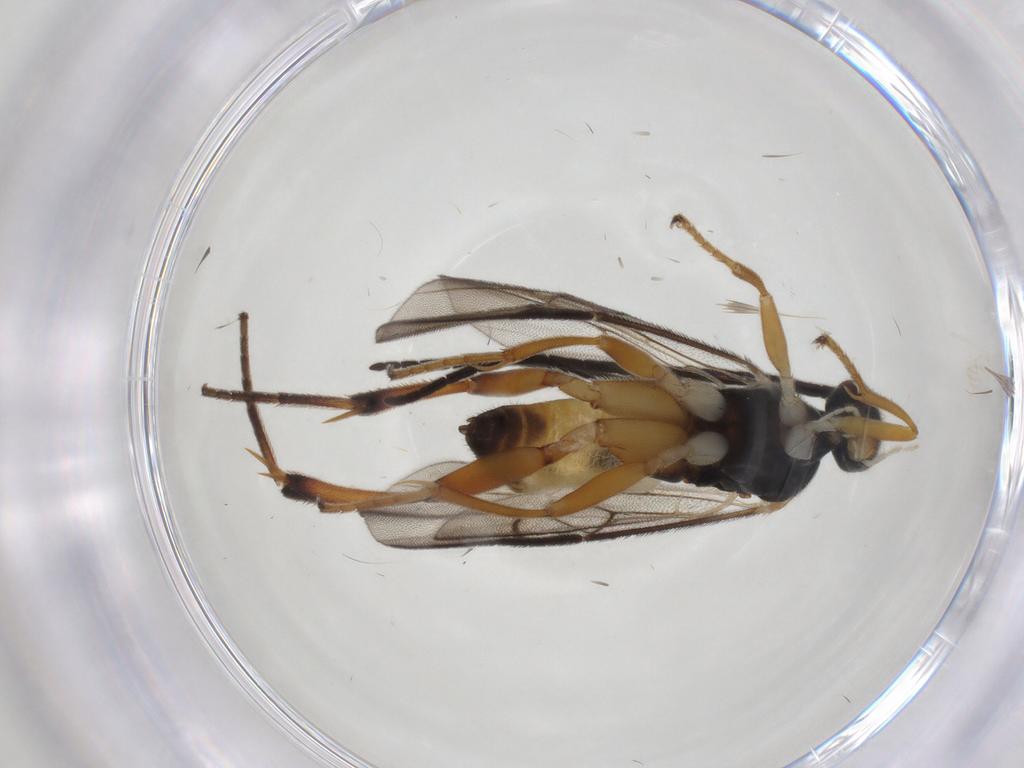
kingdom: Animalia
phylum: Arthropoda
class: Insecta
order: Hymenoptera
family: Braconidae
